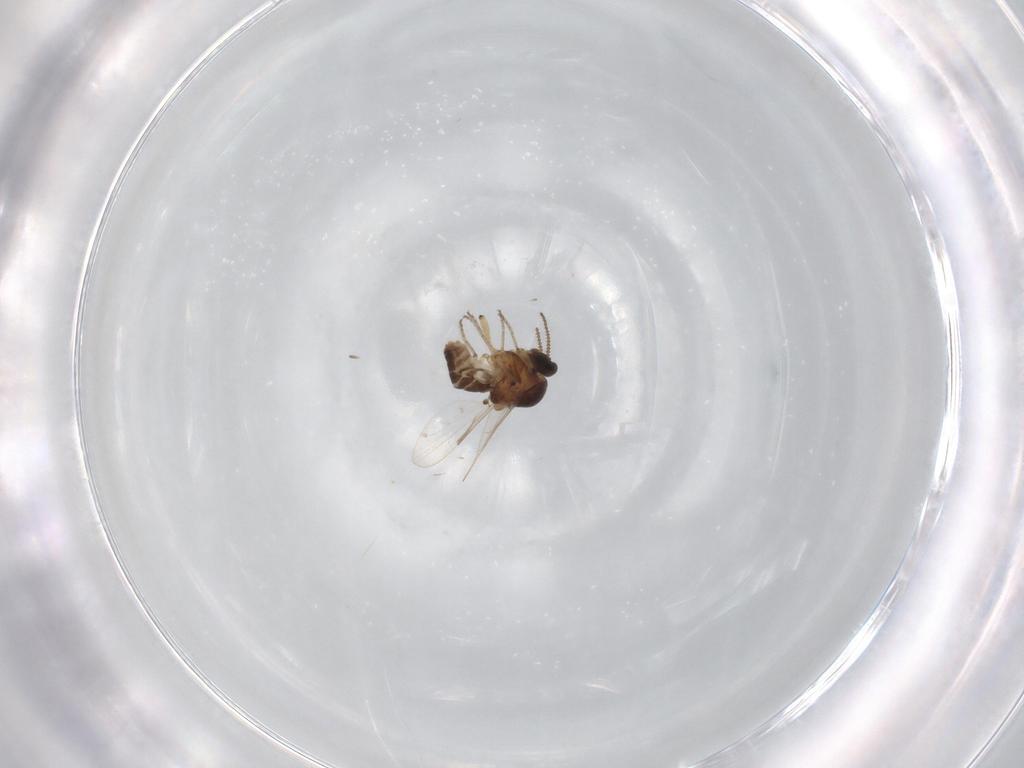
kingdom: Animalia
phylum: Arthropoda
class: Insecta
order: Diptera
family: Ceratopogonidae
